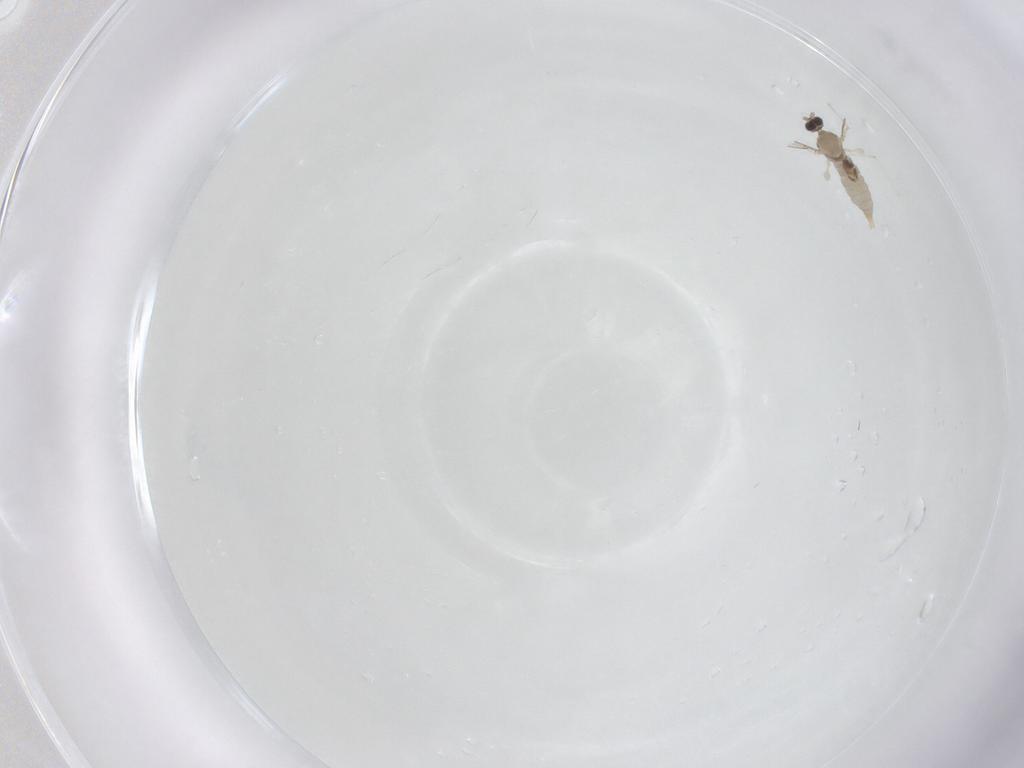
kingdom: Animalia
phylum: Arthropoda
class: Insecta
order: Diptera
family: Cecidomyiidae
